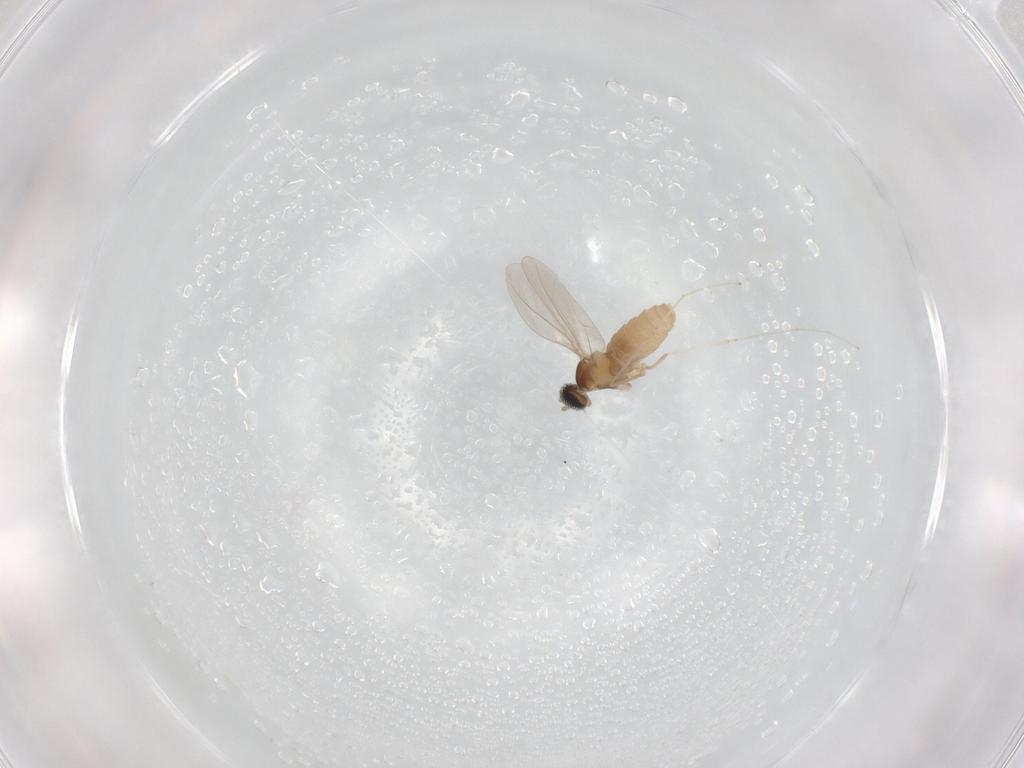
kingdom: Animalia
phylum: Arthropoda
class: Insecta
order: Diptera
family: Cecidomyiidae
